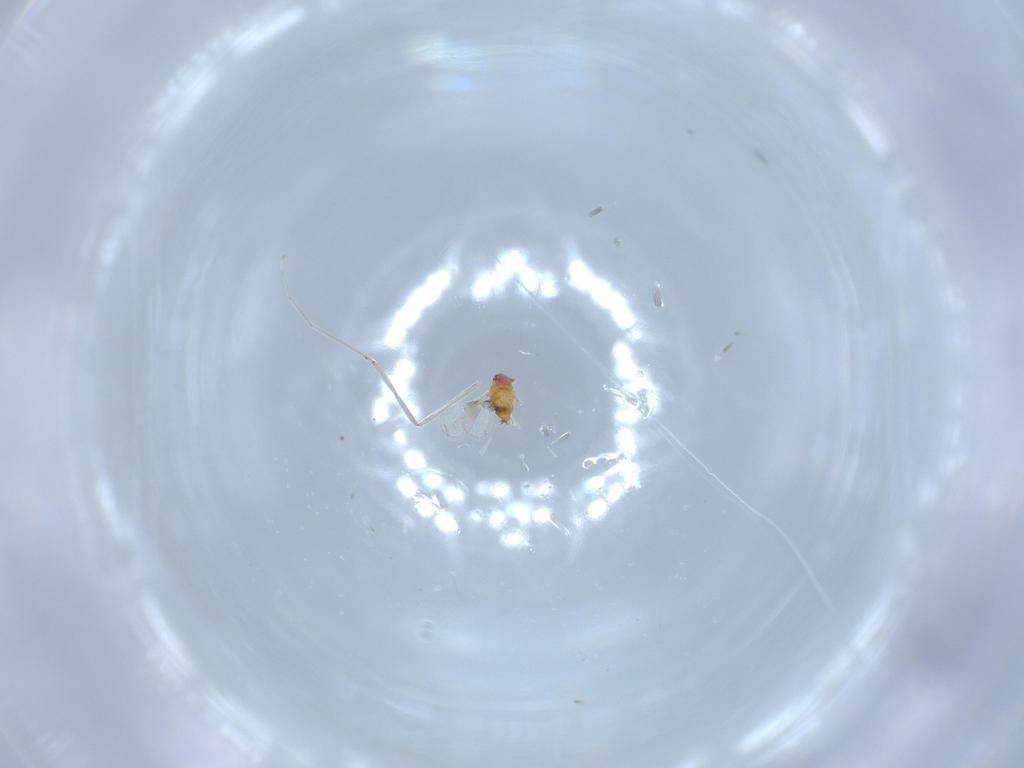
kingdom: Animalia
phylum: Arthropoda
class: Insecta
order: Hymenoptera
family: Trichogrammatidae
